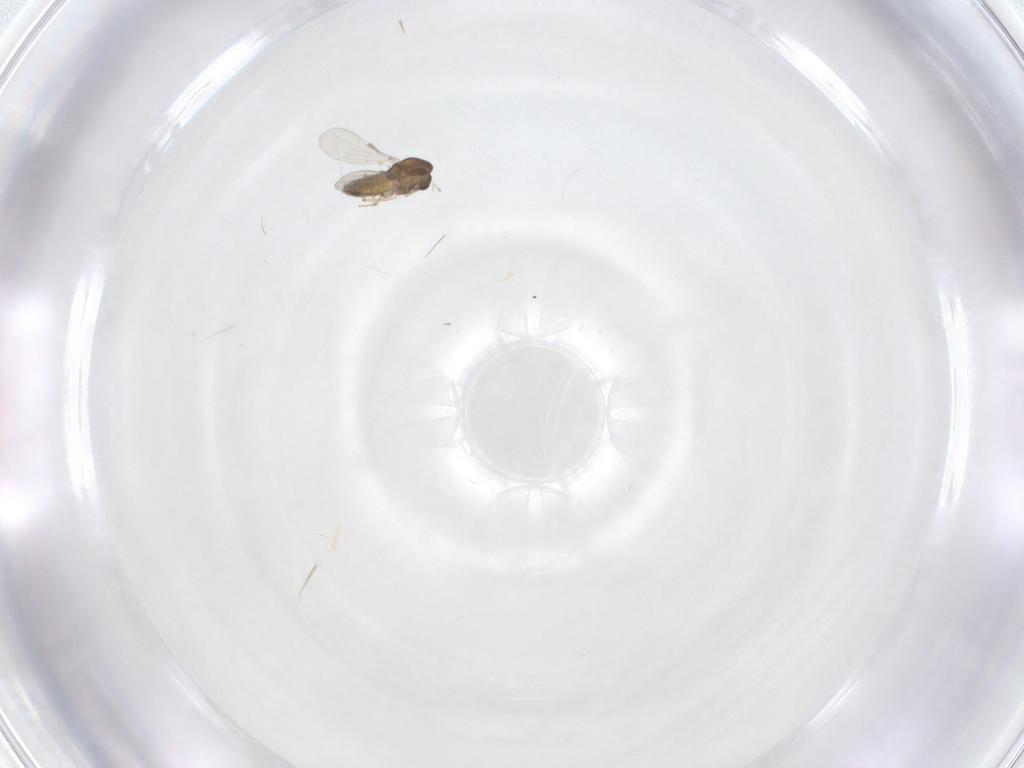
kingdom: Animalia
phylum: Arthropoda
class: Insecta
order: Diptera
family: Chironomidae
